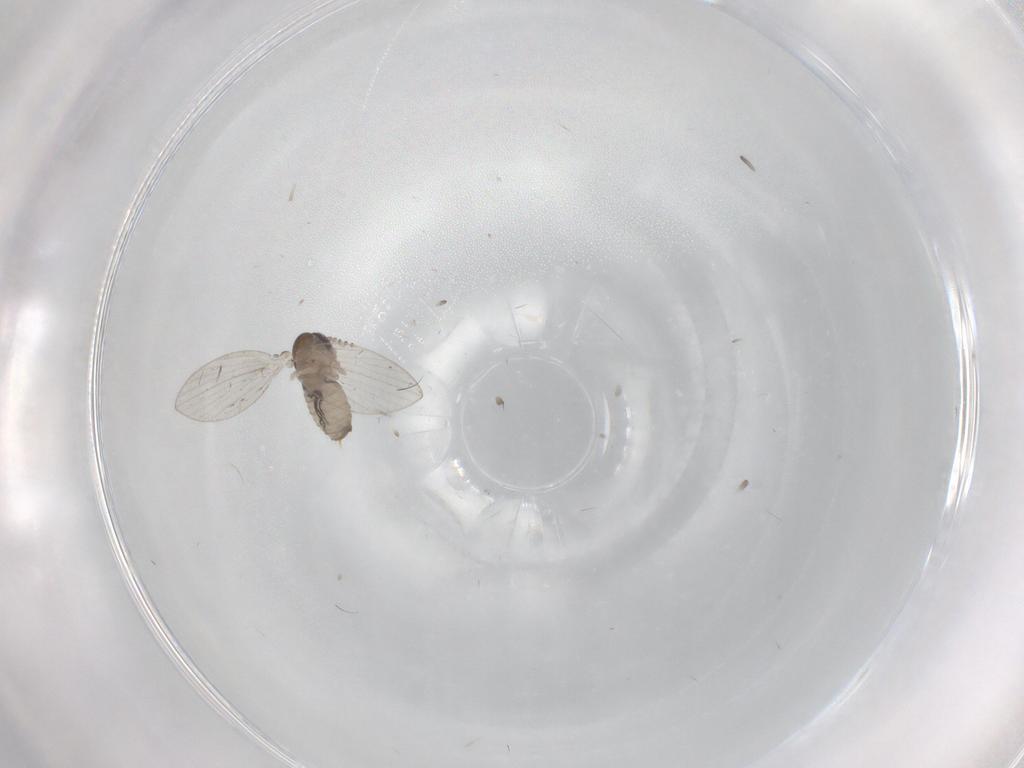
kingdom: Animalia
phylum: Arthropoda
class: Insecta
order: Diptera
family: Psychodidae
